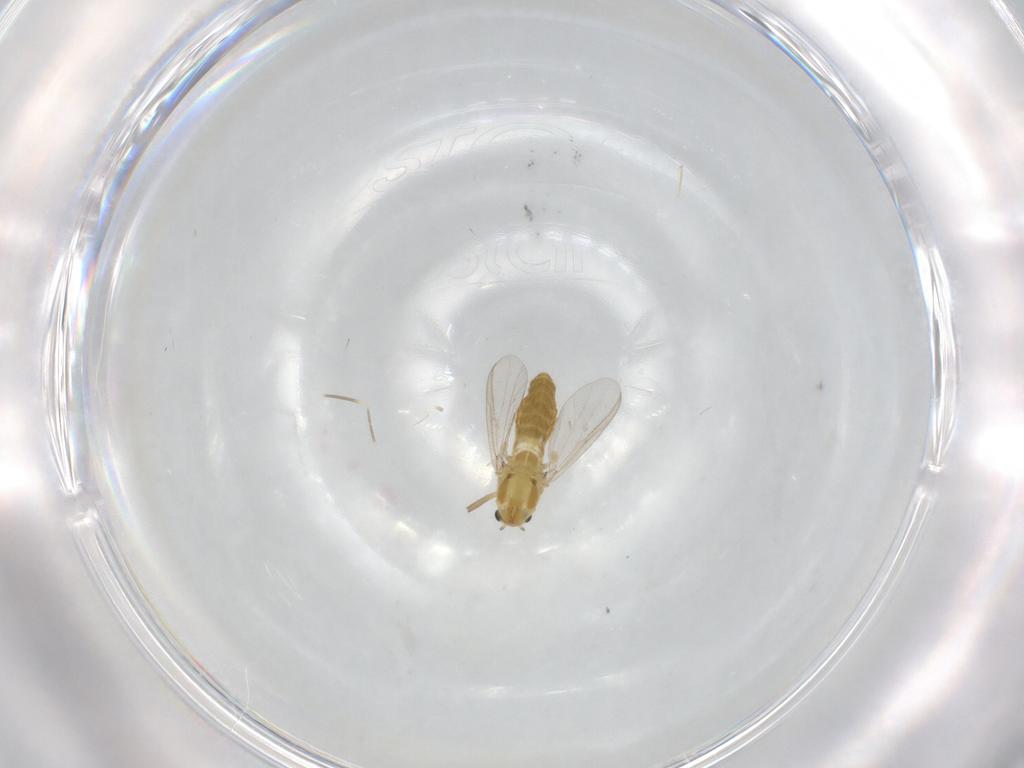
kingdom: Animalia
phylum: Arthropoda
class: Insecta
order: Diptera
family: Chironomidae
